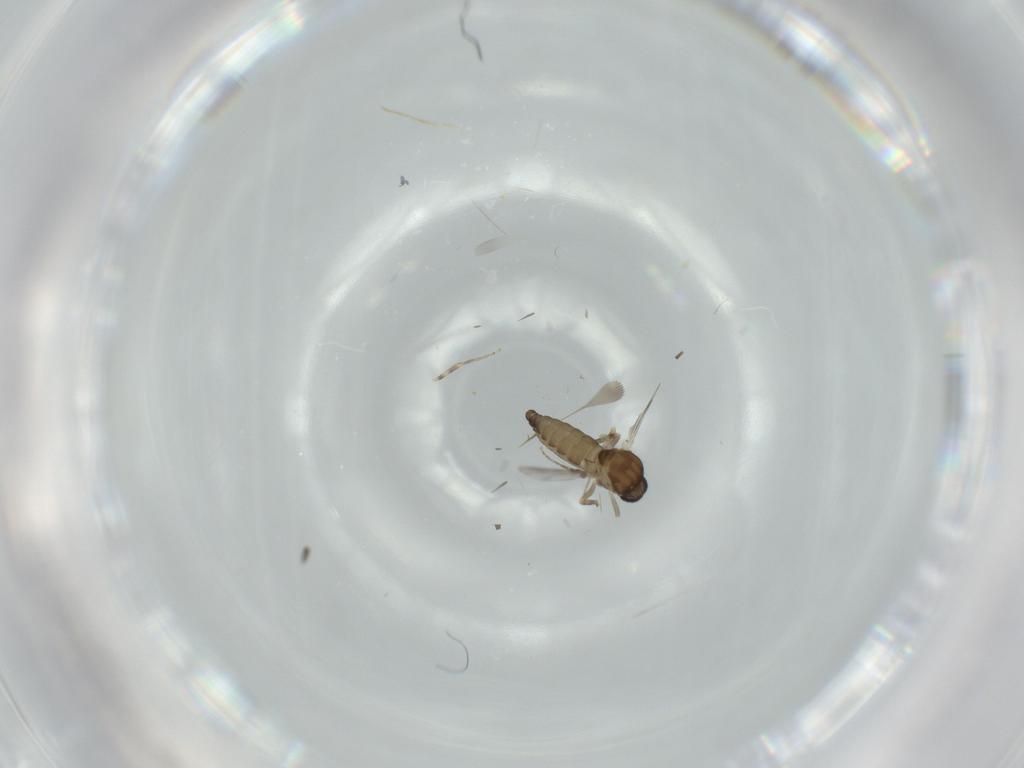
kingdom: Animalia
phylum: Arthropoda
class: Insecta
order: Diptera
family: Ceratopogonidae
